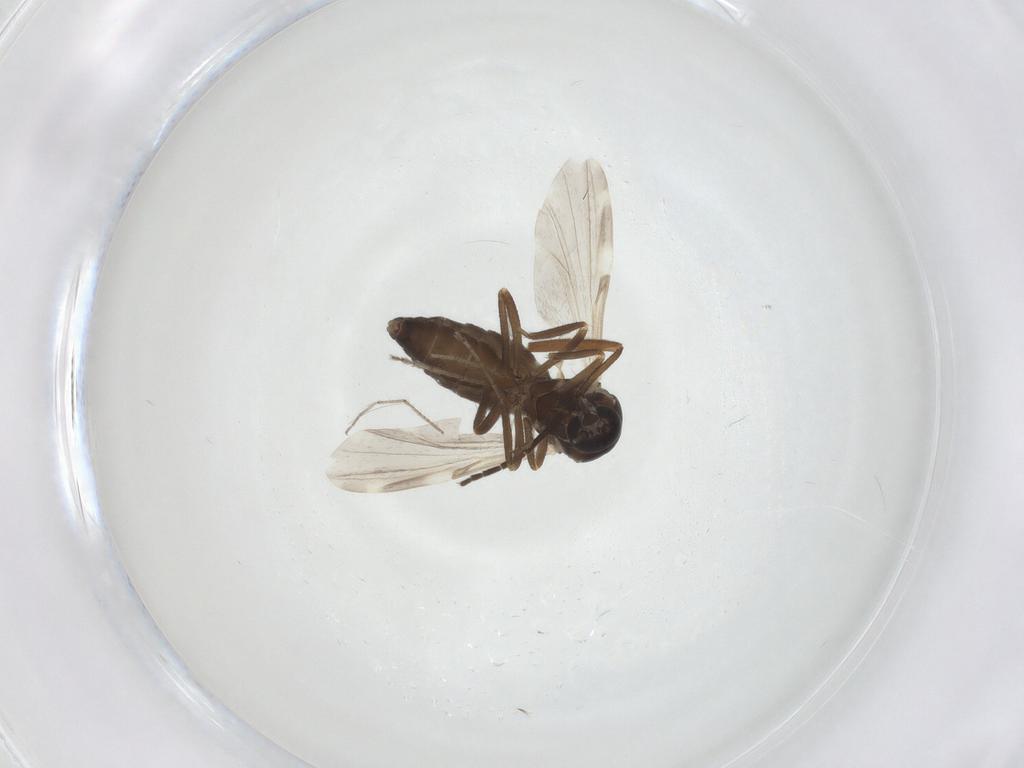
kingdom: Animalia
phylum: Arthropoda
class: Insecta
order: Diptera
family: Ceratopogonidae
